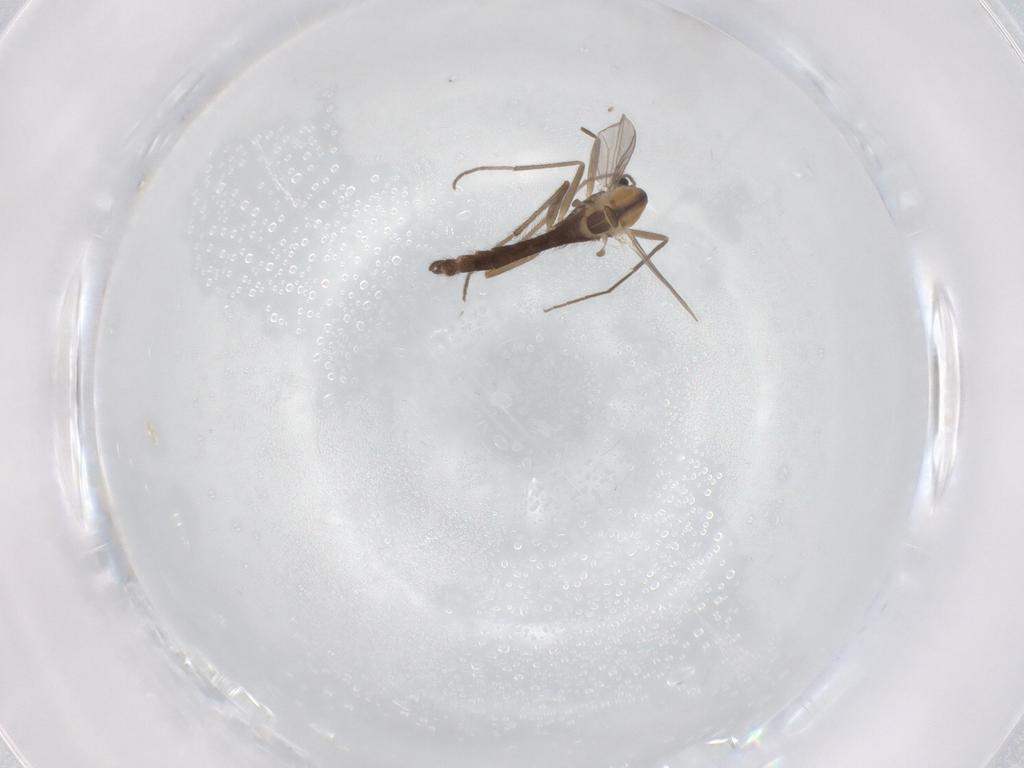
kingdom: Animalia
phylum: Arthropoda
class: Insecta
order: Diptera
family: Chironomidae
